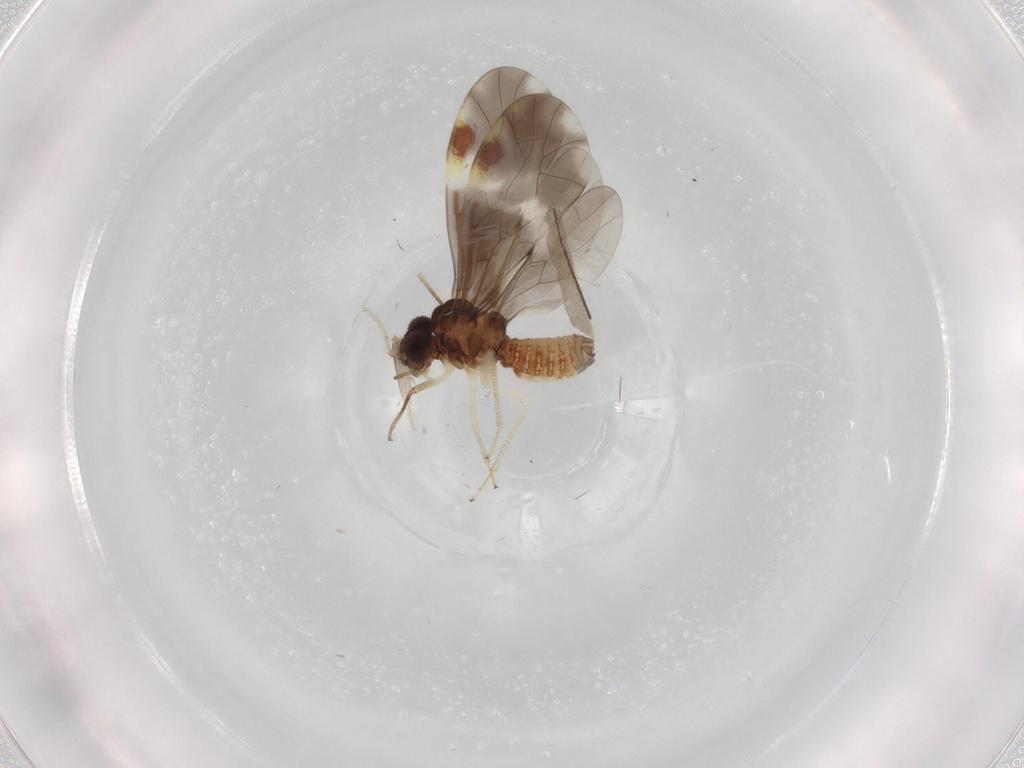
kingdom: Animalia
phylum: Arthropoda
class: Insecta
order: Psocodea
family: Peripsocidae
